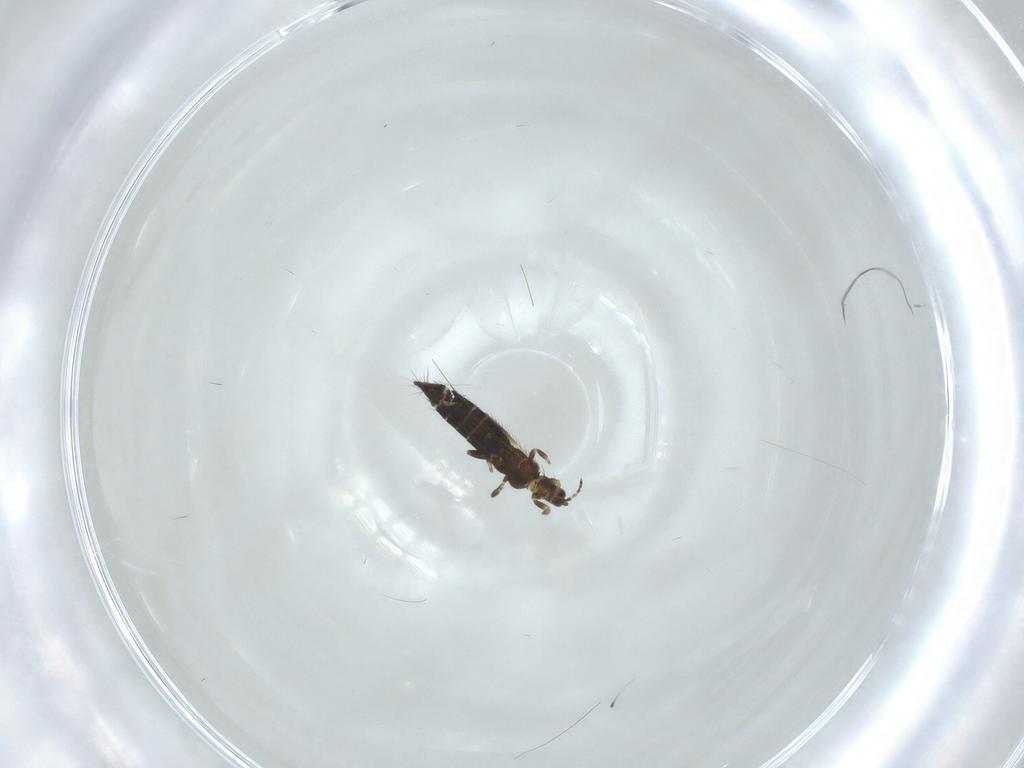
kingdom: Animalia
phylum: Arthropoda
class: Insecta
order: Thysanoptera
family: Thripidae
